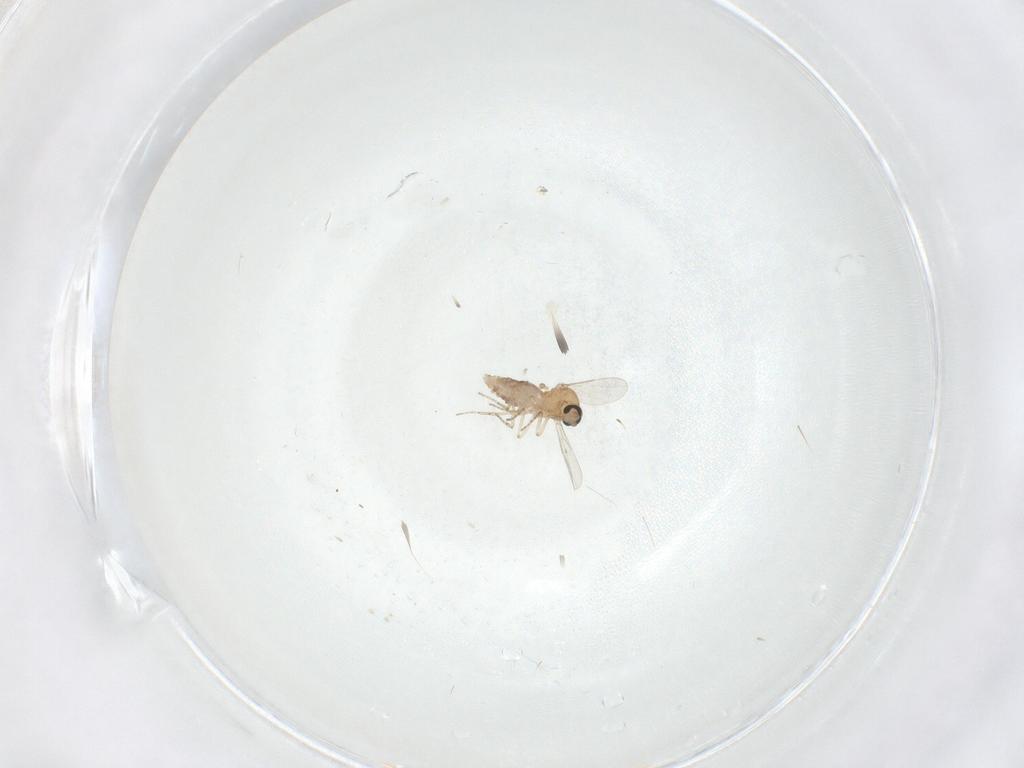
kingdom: Animalia
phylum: Arthropoda
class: Insecta
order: Diptera
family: Ceratopogonidae
